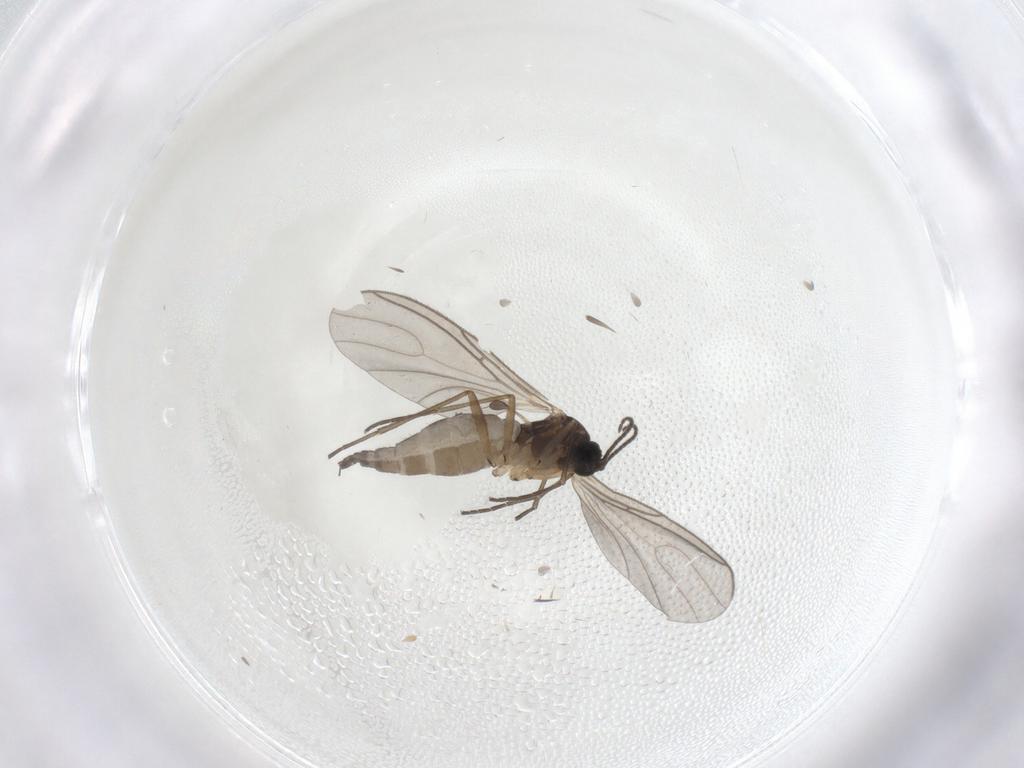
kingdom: Animalia
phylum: Arthropoda
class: Insecta
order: Diptera
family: Sciaridae
